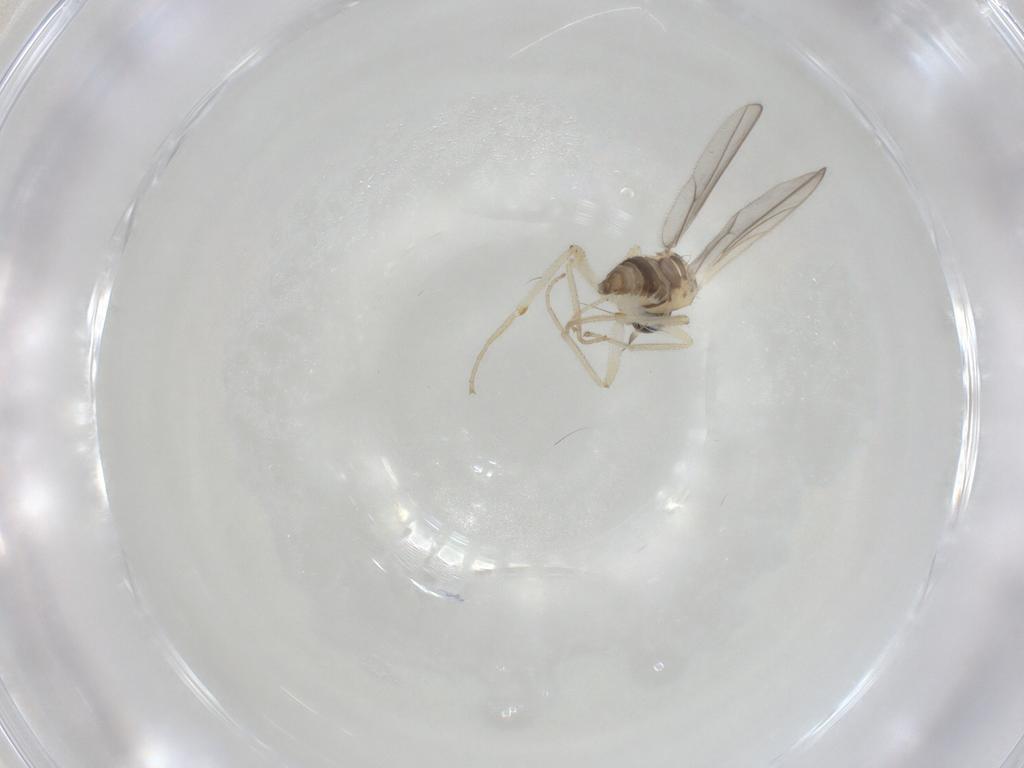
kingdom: Animalia
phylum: Arthropoda
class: Insecta
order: Diptera
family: Hybotidae
